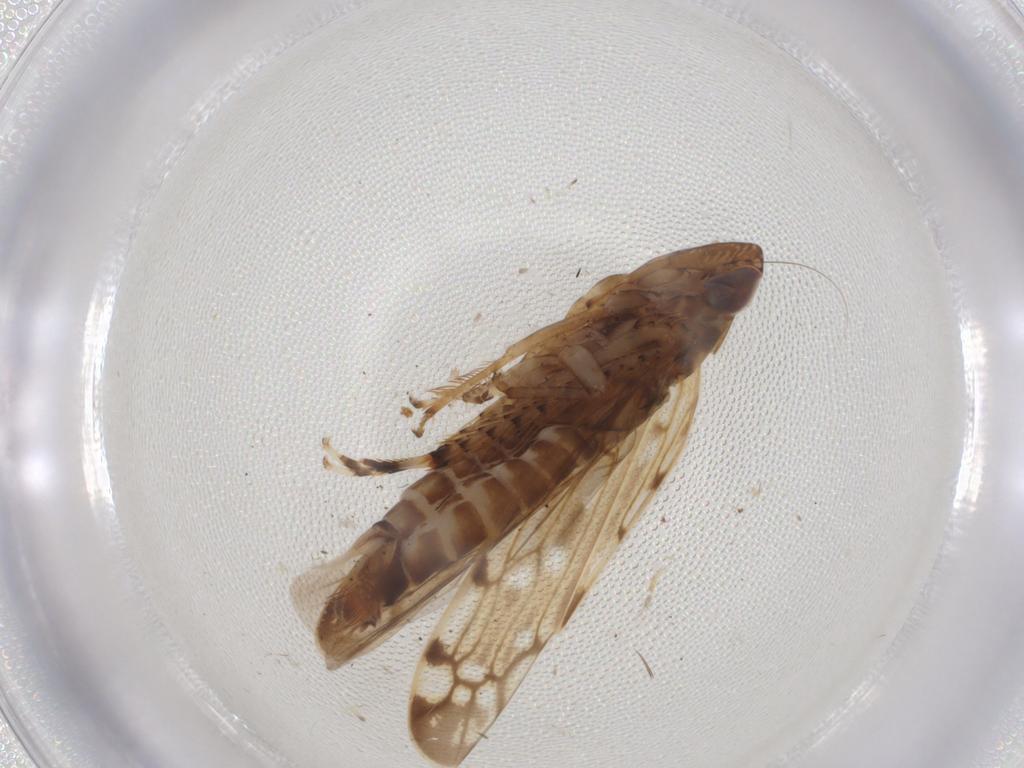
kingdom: Animalia
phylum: Arthropoda
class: Insecta
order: Hemiptera
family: Cicadellidae
